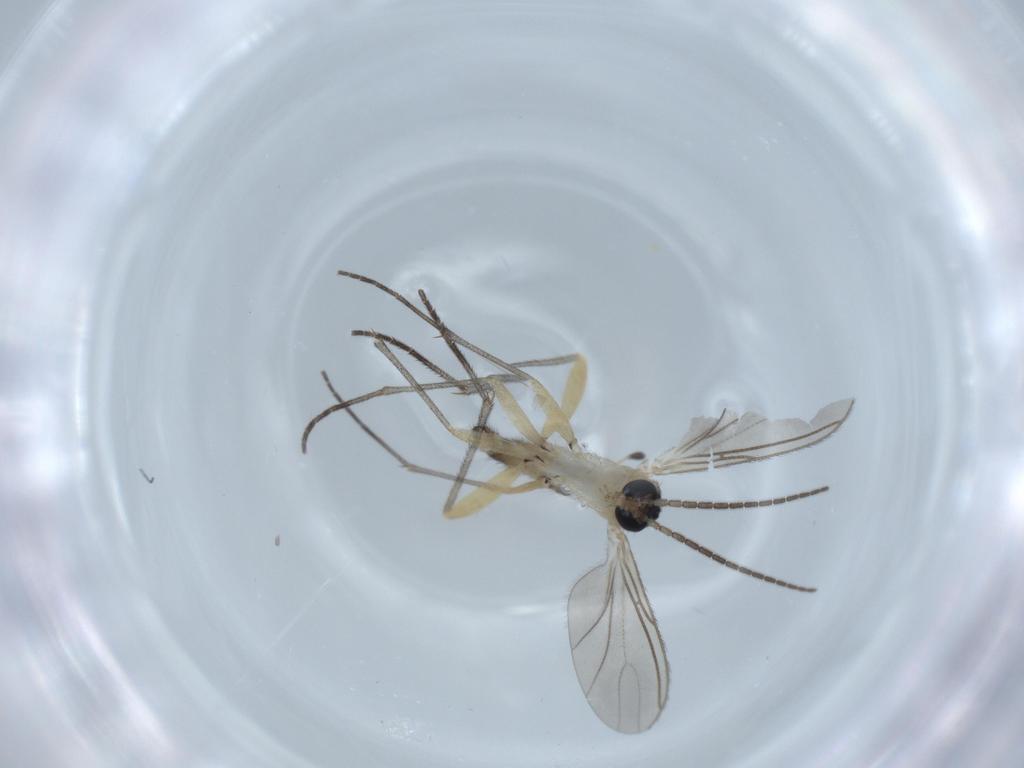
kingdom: Animalia
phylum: Arthropoda
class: Insecta
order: Diptera
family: Sciaridae
